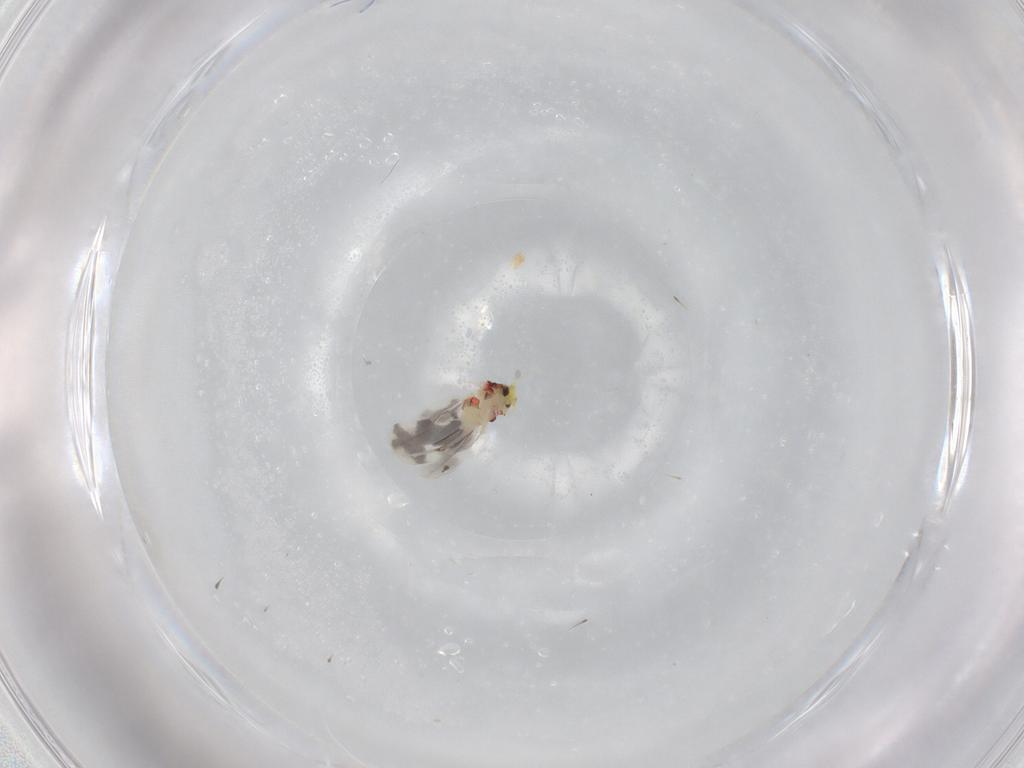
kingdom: Animalia
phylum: Arthropoda
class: Insecta
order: Hemiptera
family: Aleyrodidae
